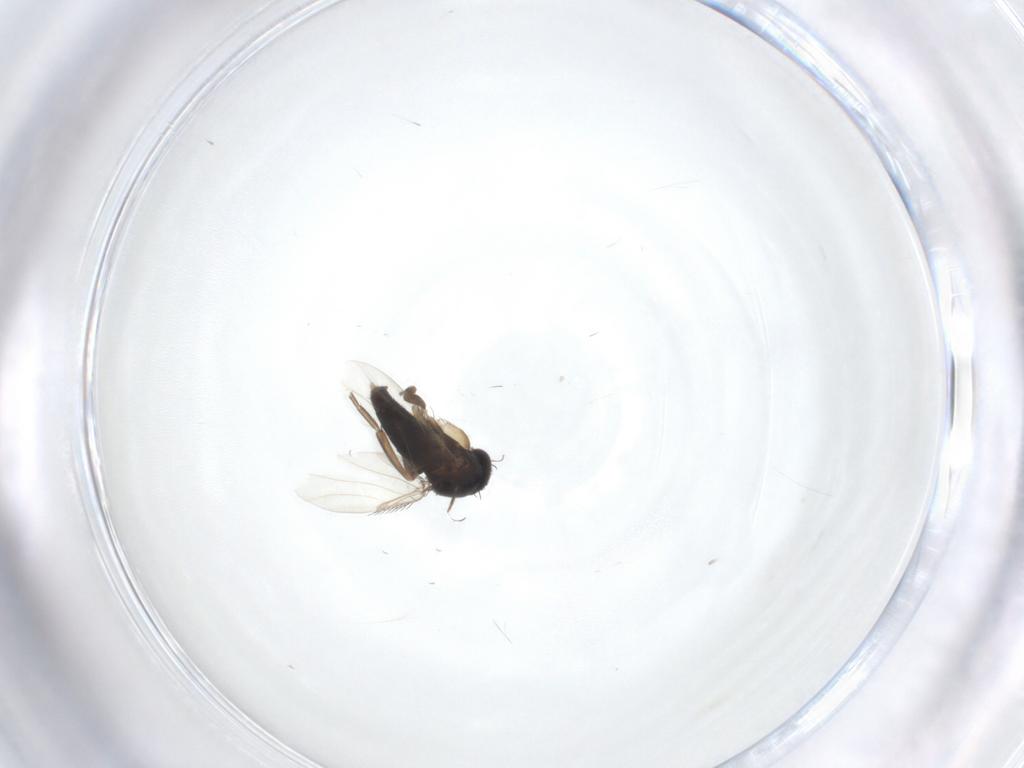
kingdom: Animalia
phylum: Arthropoda
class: Insecta
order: Diptera
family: Phoridae
